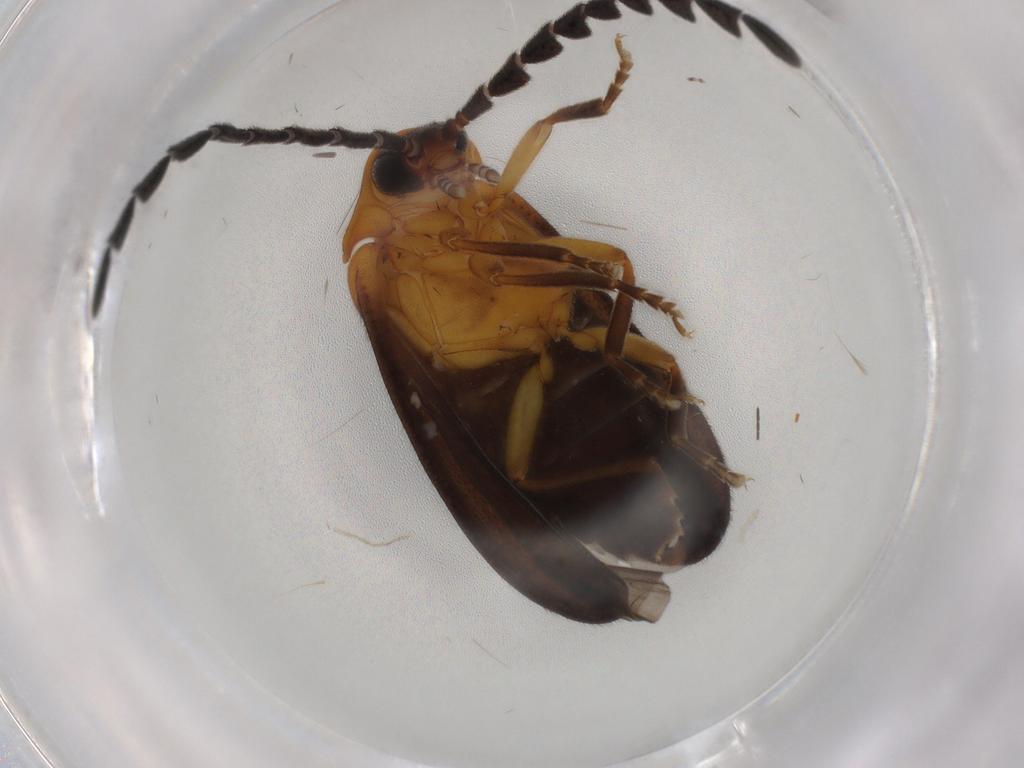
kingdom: Animalia
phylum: Arthropoda
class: Insecta
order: Coleoptera
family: Lampyridae
